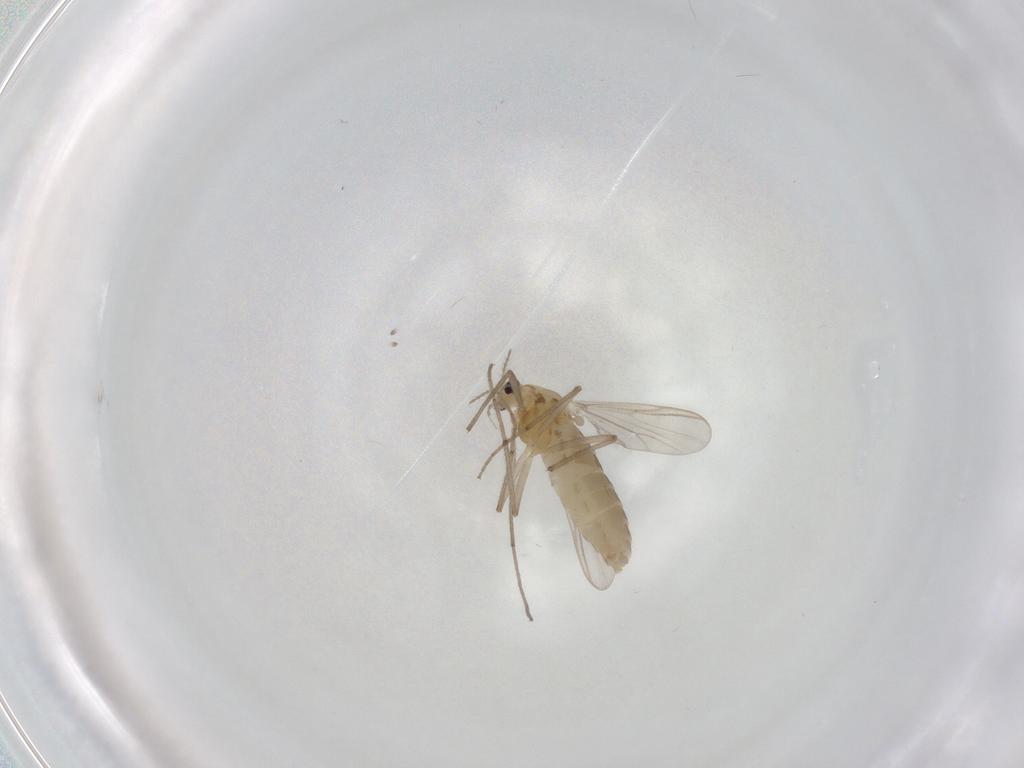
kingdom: Animalia
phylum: Arthropoda
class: Insecta
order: Diptera
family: Chironomidae
